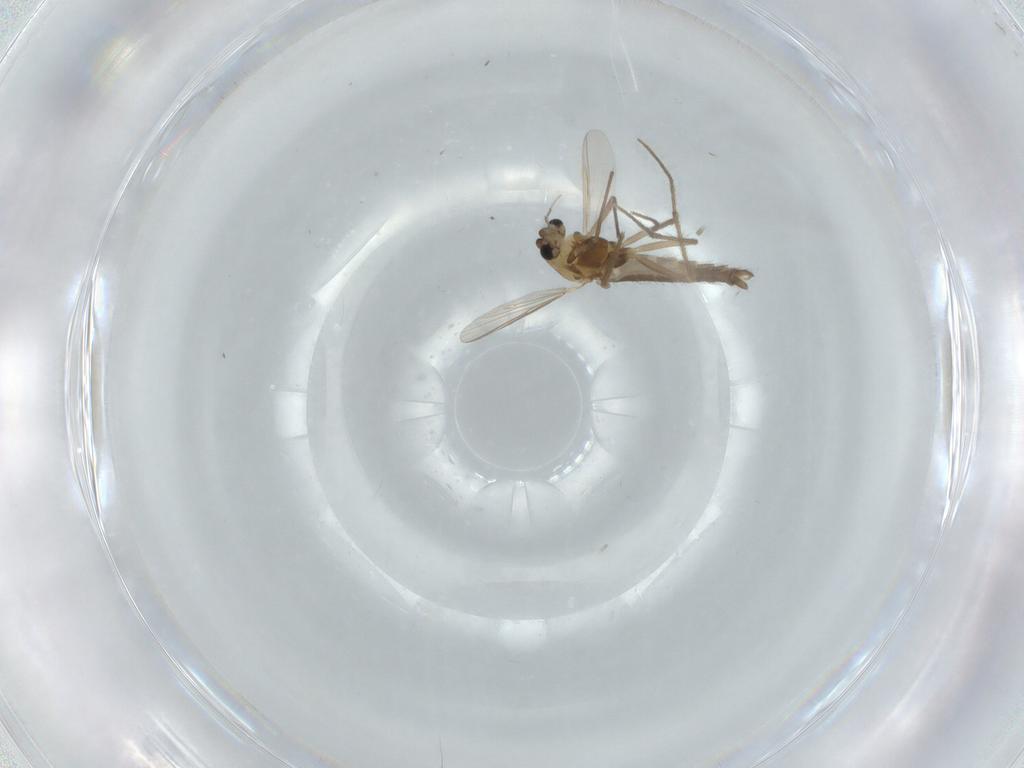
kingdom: Animalia
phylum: Arthropoda
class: Insecta
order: Diptera
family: Chironomidae
